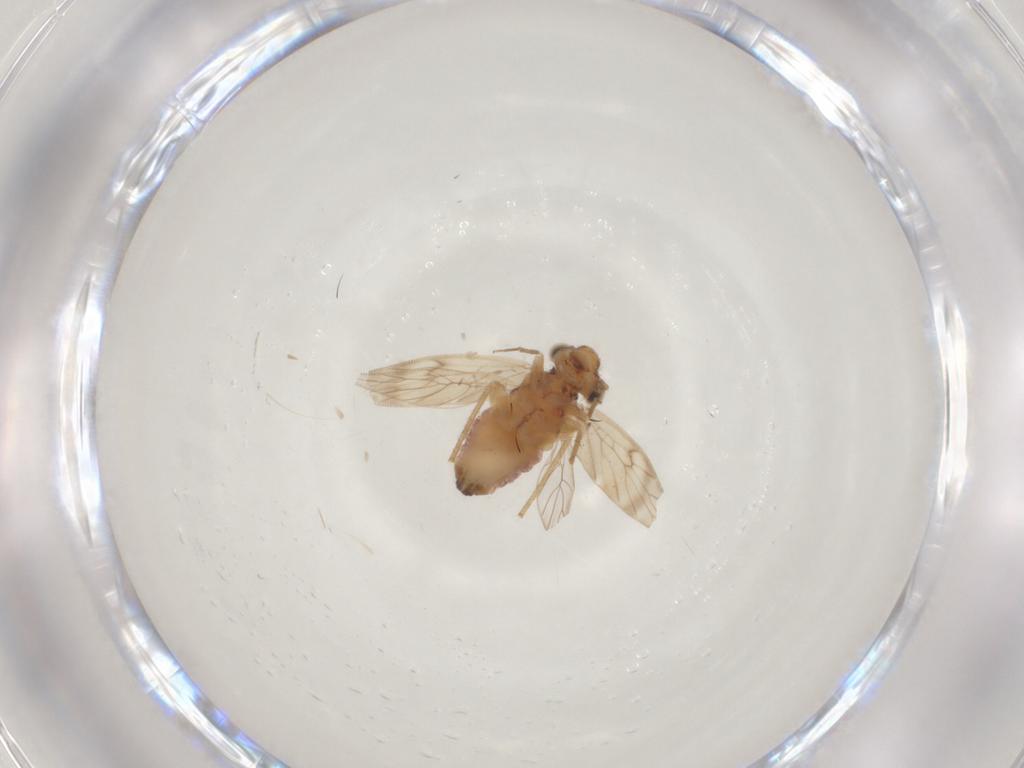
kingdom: Animalia
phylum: Arthropoda
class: Insecta
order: Psocodea
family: Lepidopsocidae
